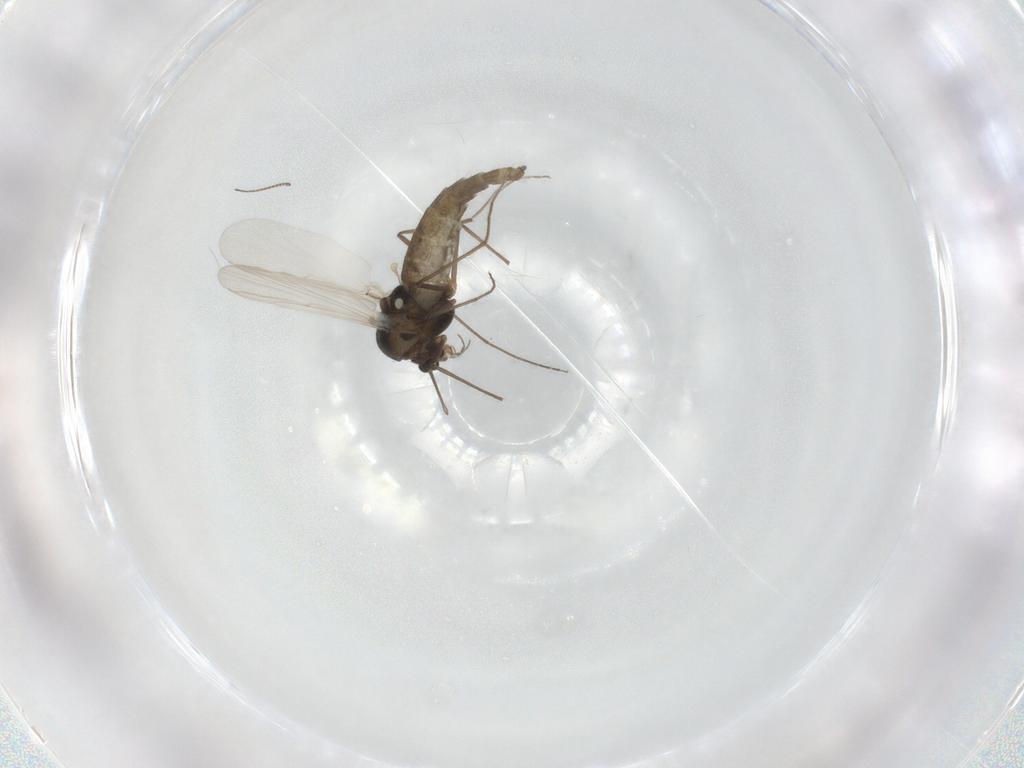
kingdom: Animalia
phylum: Arthropoda
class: Insecta
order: Diptera
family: Chironomidae
